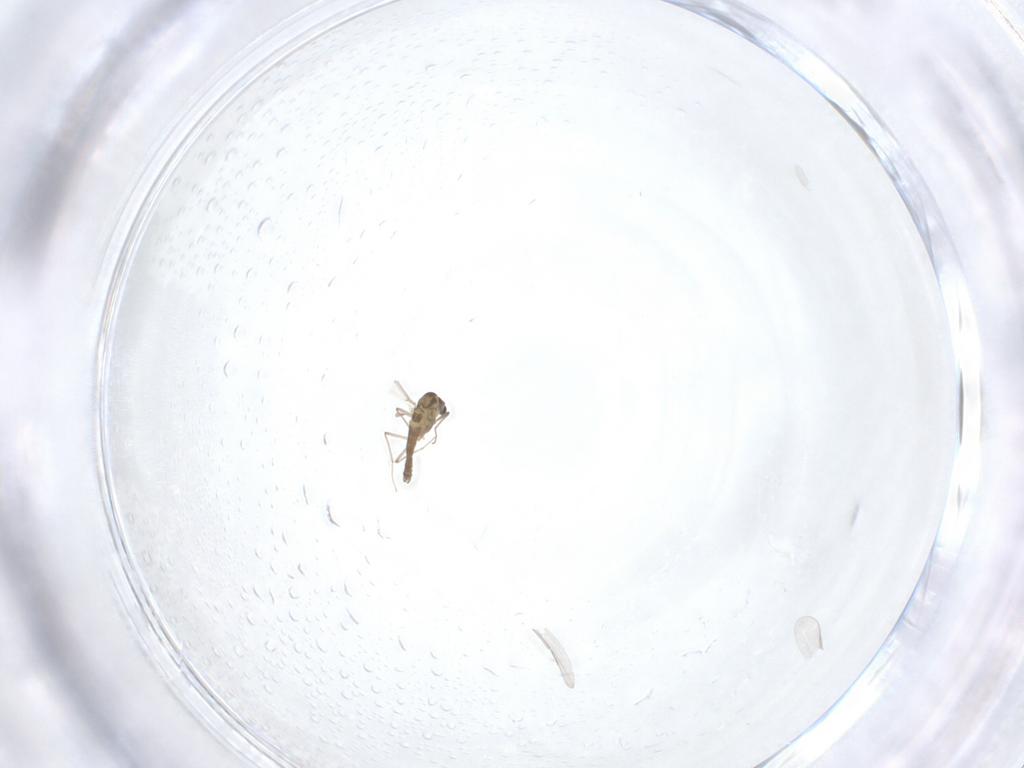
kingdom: Animalia
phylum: Arthropoda
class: Insecta
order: Diptera
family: Chironomidae
